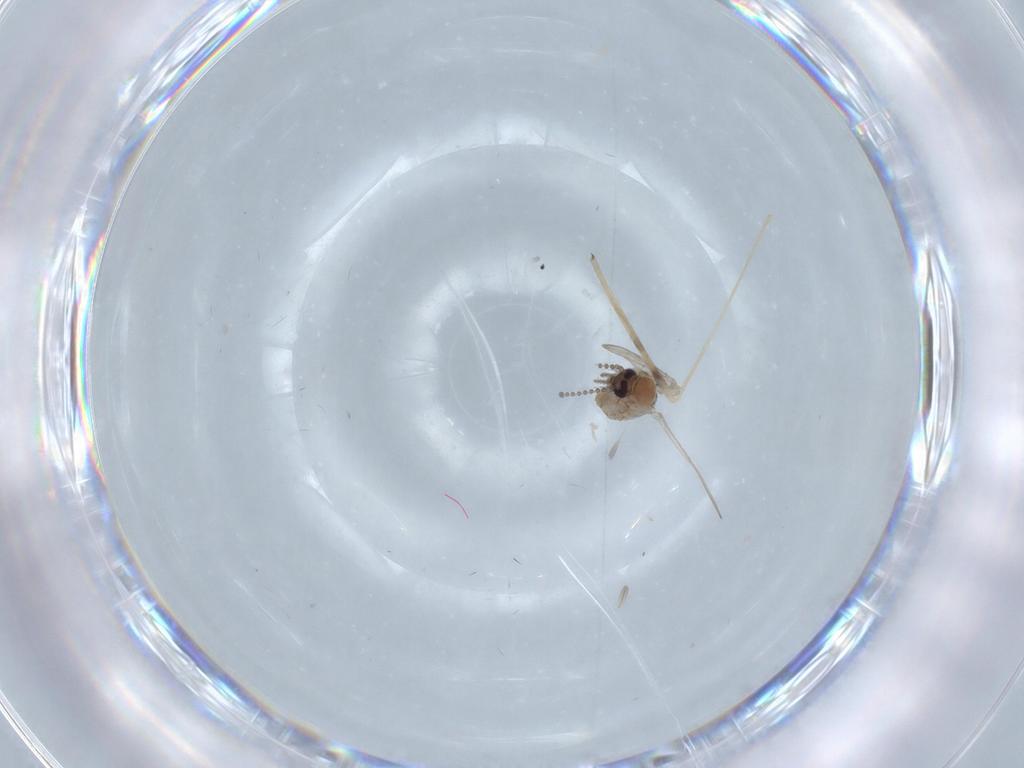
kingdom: Animalia
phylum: Arthropoda
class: Insecta
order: Diptera
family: Psychodidae
